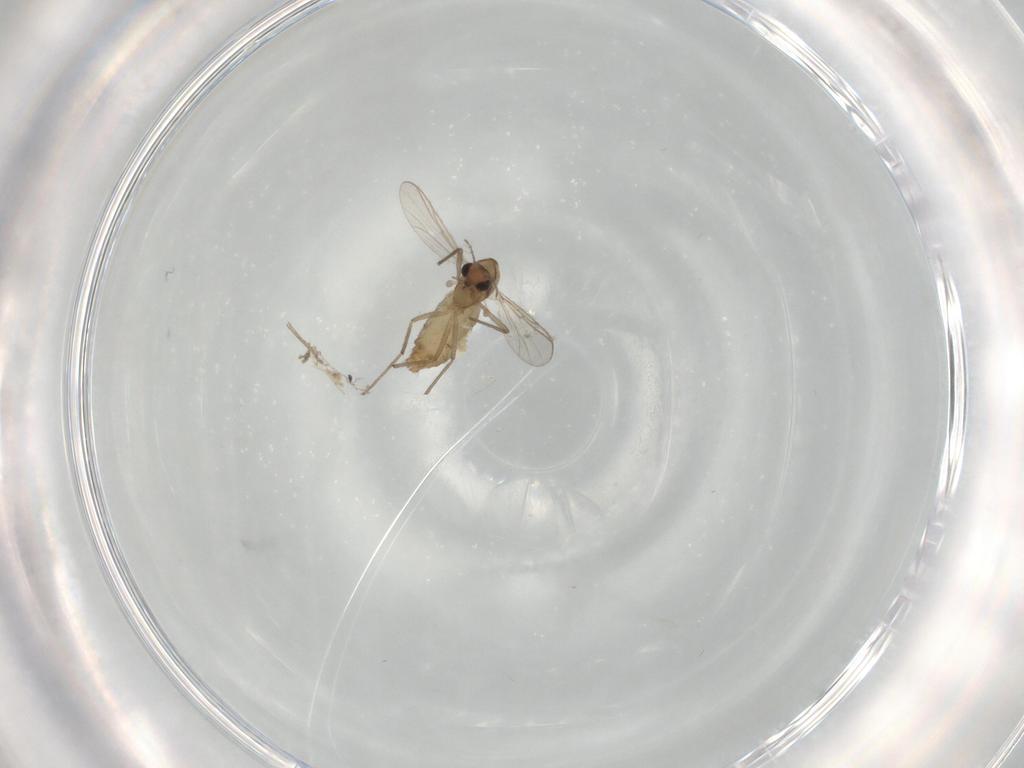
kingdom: Animalia
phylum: Arthropoda
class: Insecta
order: Diptera
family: Chironomidae
